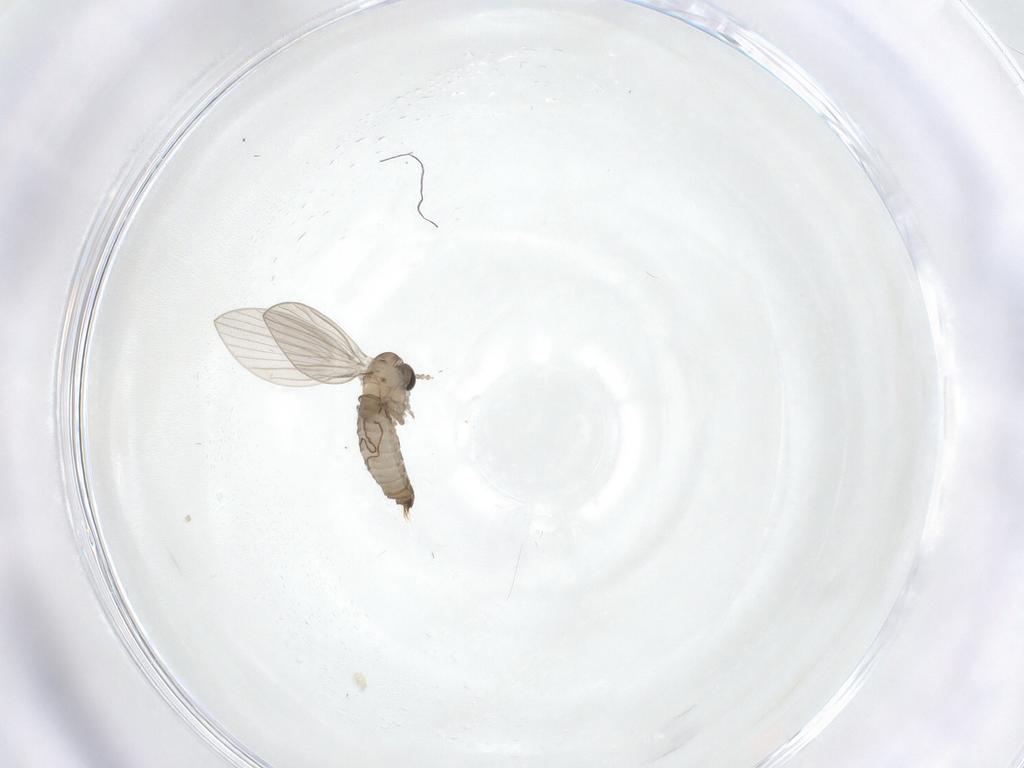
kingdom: Animalia
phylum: Arthropoda
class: Insecta
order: Diptera
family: Psychodidae
